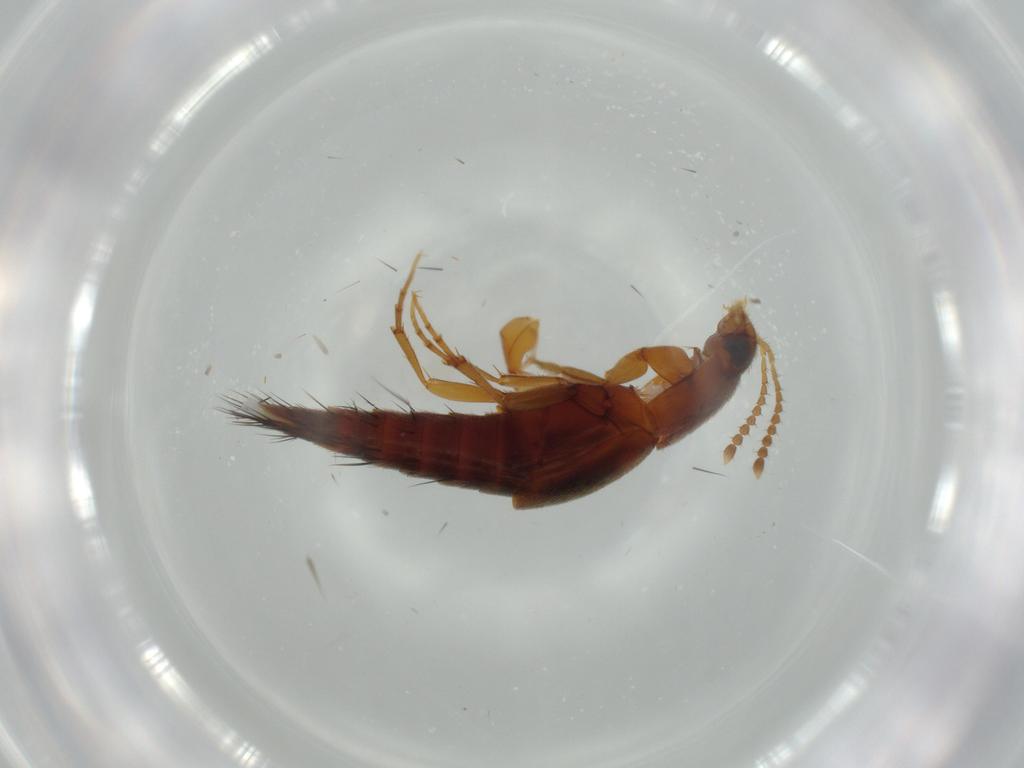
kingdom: Animalia
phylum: Arthropoda
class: Insecta
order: Coleoptera
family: Staphylinidae
